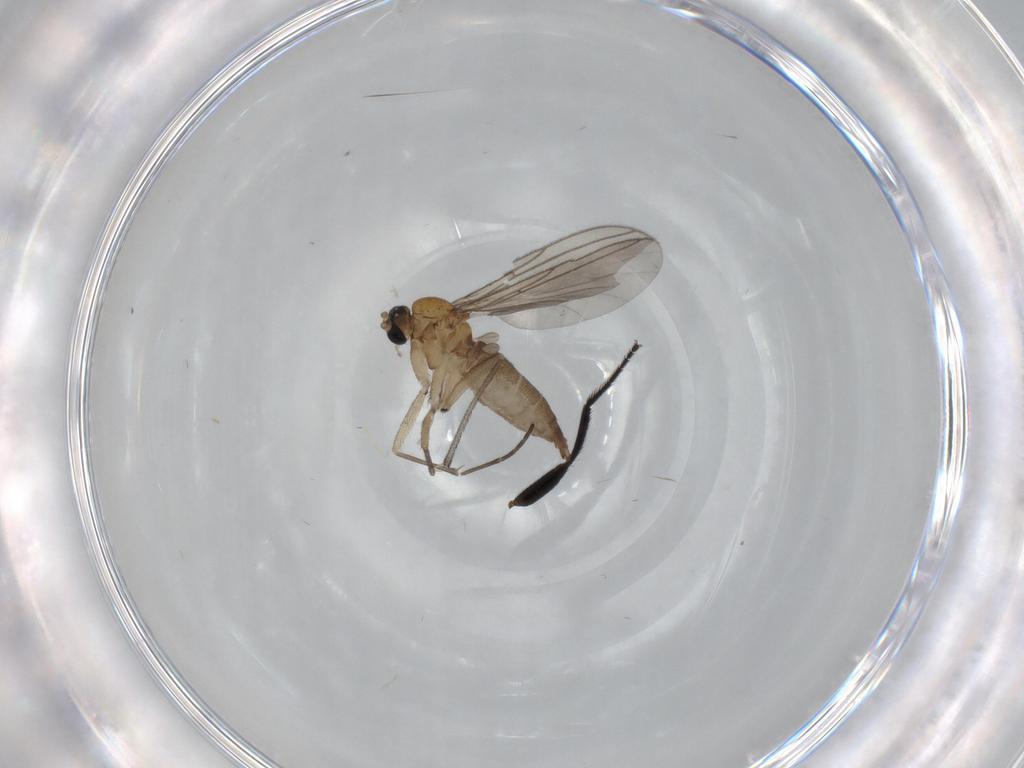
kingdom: Animalia
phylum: Arthropoda
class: Insecta
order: Diptera
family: Sciaridae
